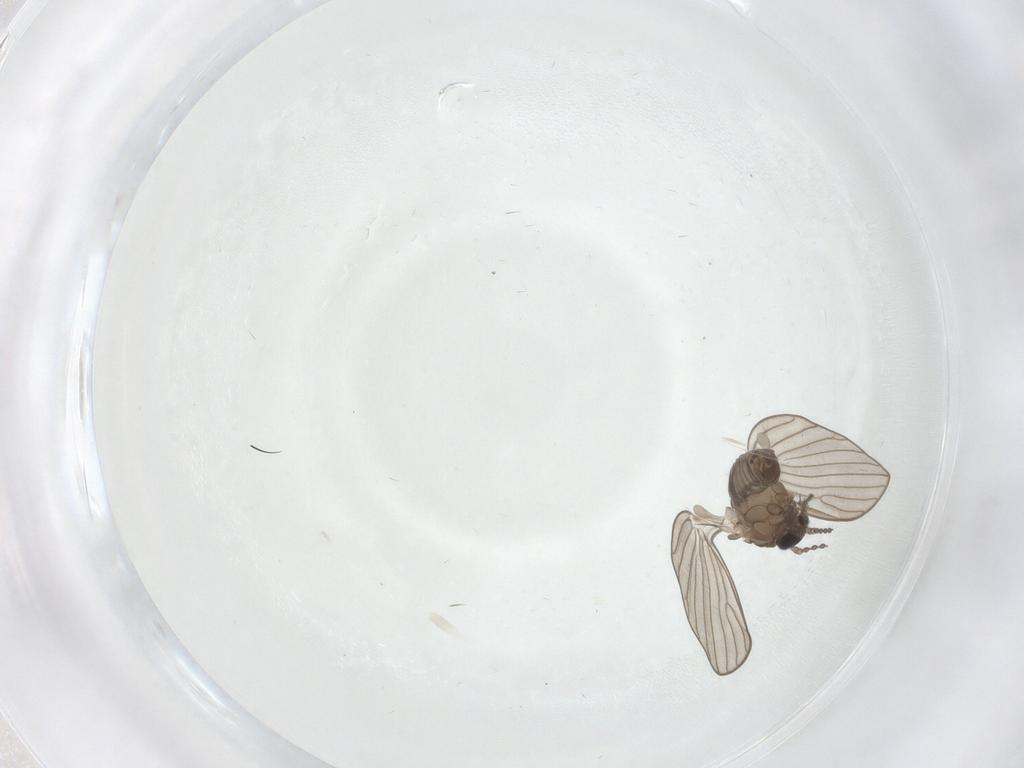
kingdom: Animalia
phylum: Arthropoda
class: Insecta
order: Diptera
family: Psychodidae
